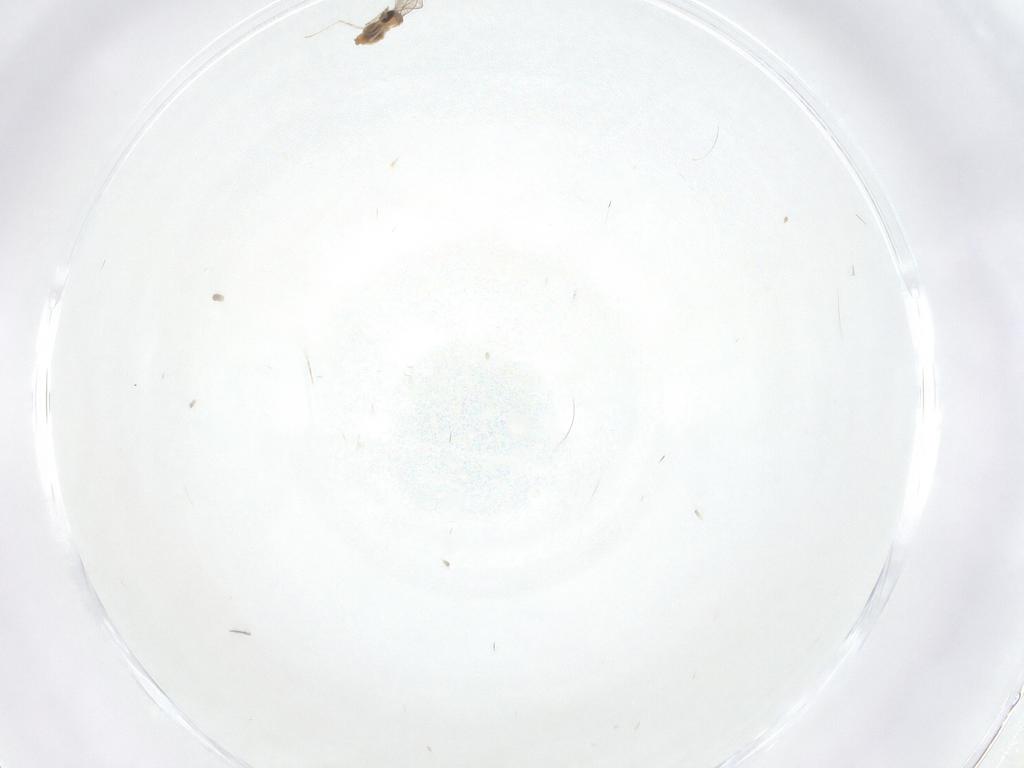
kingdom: Animalia
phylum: Arthropoda
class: Insecta
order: Diptera
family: Cecidomyiidae
